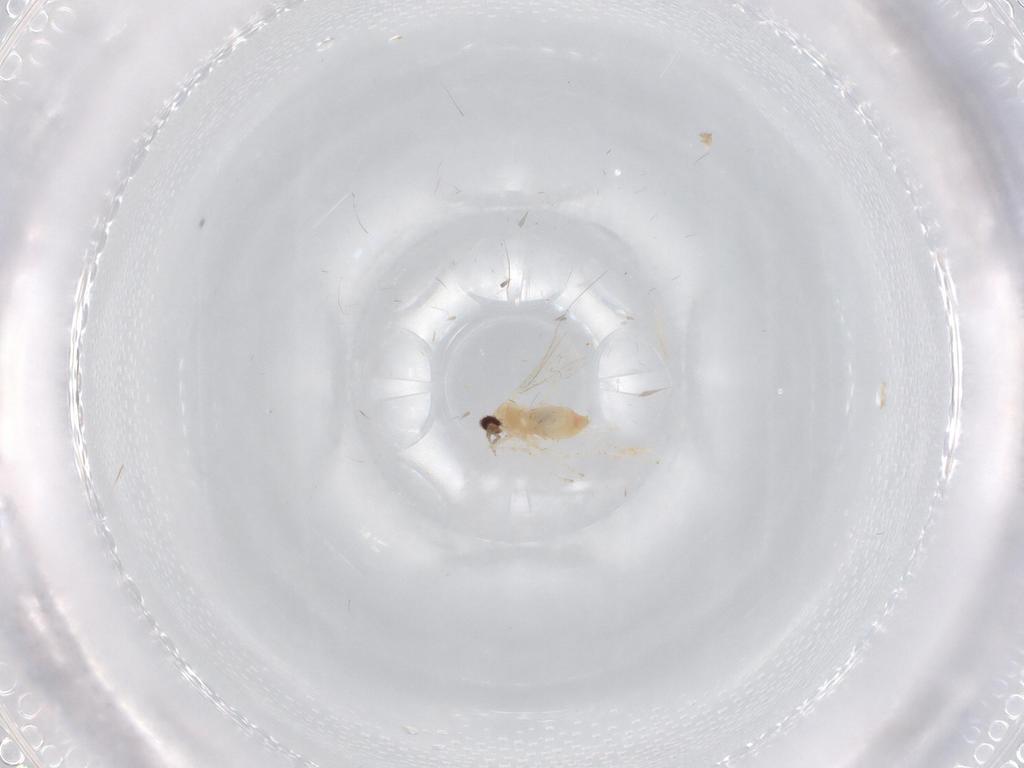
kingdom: Animalia
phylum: Arthropoda
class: Insecta
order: Diptera
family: Cecidomyiidae
